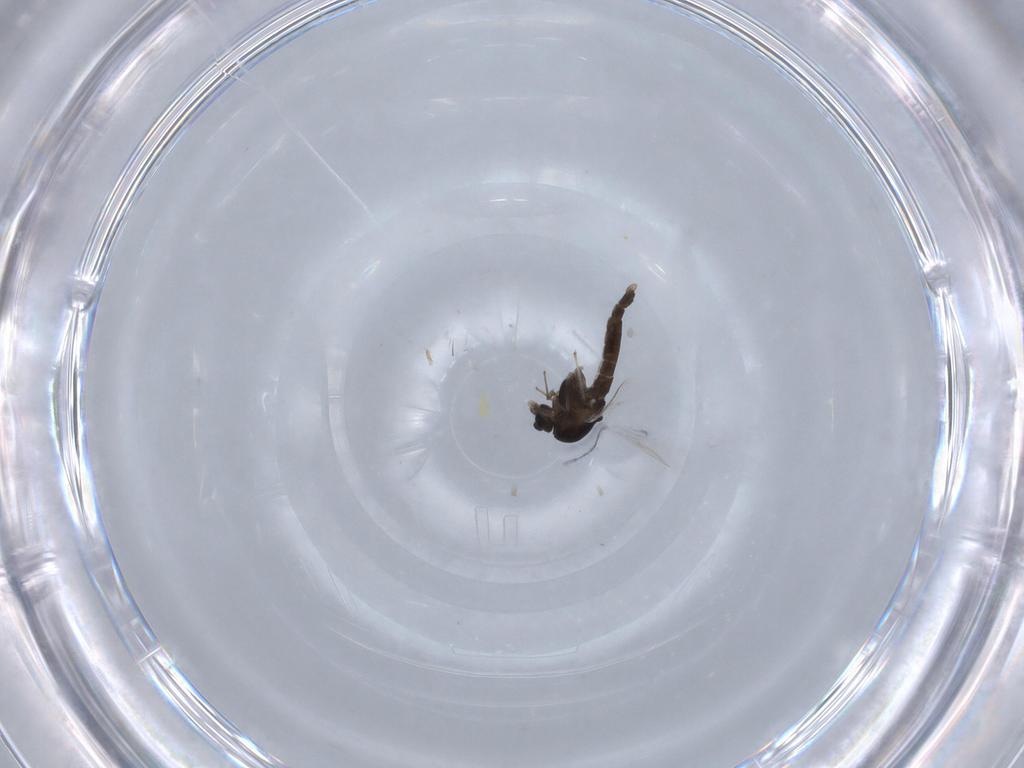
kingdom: Animalia
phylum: Arthropoda
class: Insecta
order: Diptera
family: Chironomidae
